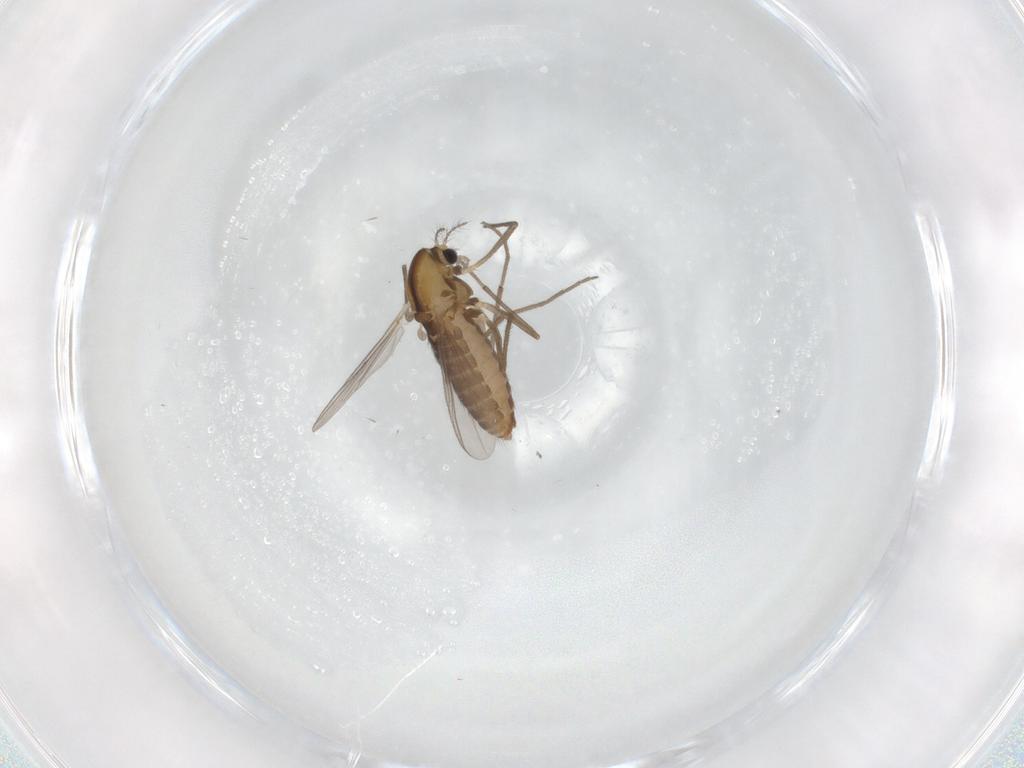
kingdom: Animalia
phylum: Arthropoda
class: Insecta
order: Diptera
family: Chironomidae
